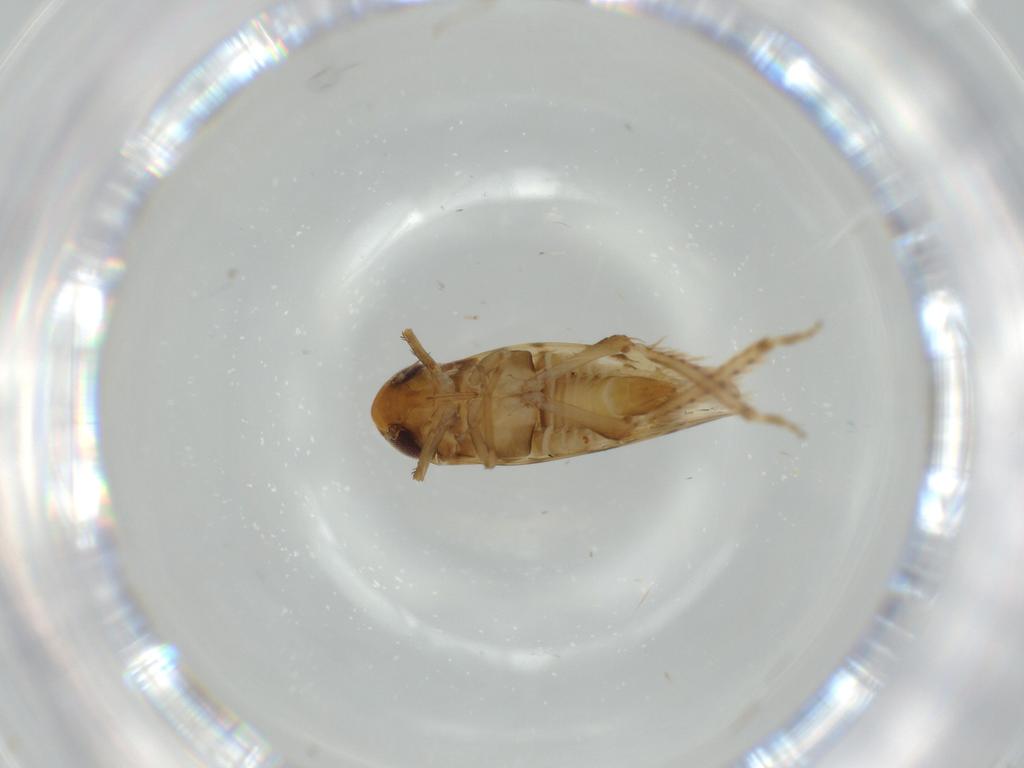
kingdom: Animalia
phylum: Arthropoda
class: Insecta
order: Hemiptera
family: Cicadellidae
